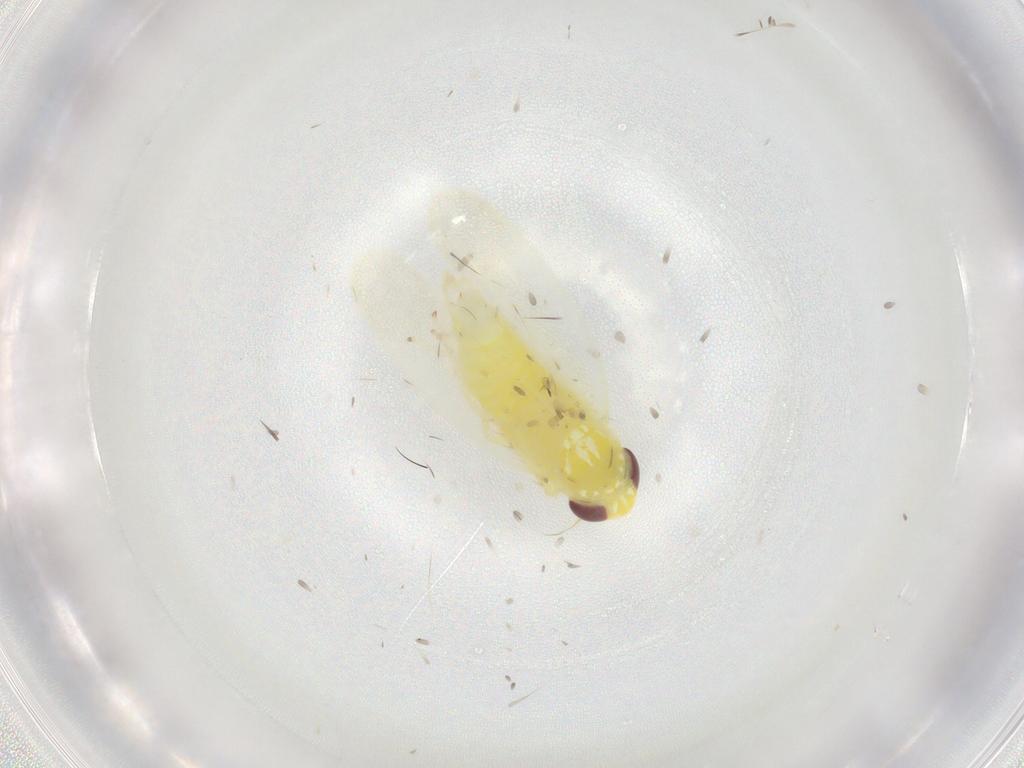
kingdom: Animalia
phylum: Arthropoda
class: Insecta
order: Hemiptera
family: Cicadellidae
